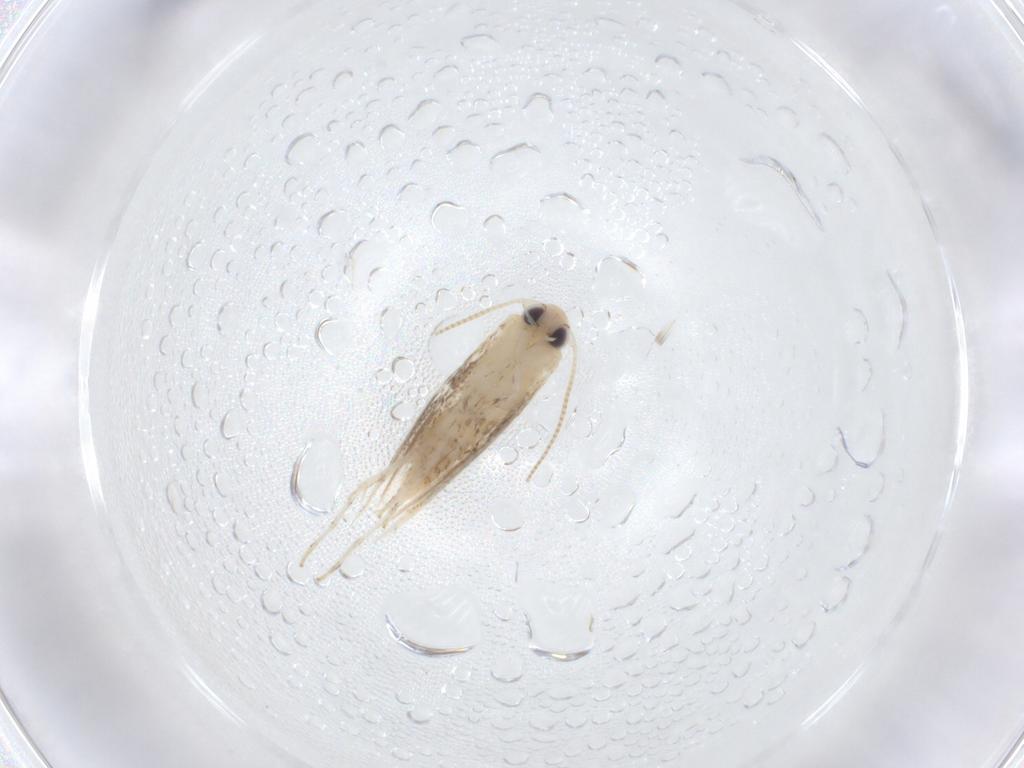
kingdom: Animalia
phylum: Arthropoda
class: Insecta
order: Lepidoptera
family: Gracillariidae
